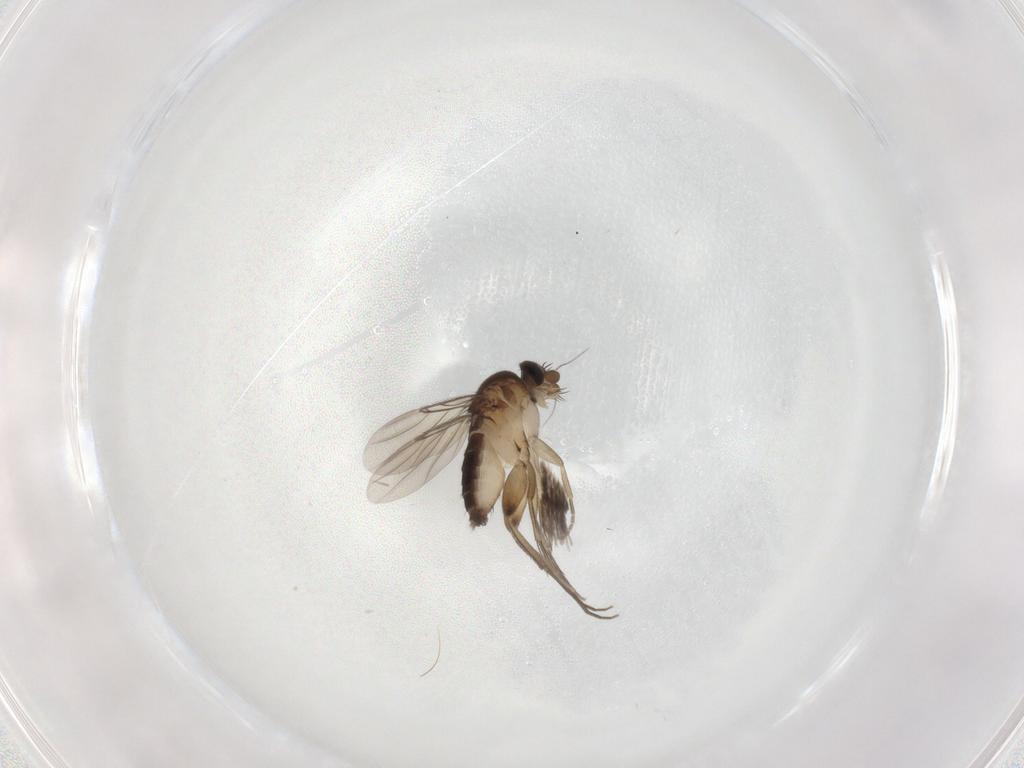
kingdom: Animalia
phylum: Arthropoda
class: Insecta
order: Diptera
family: Phoridae
